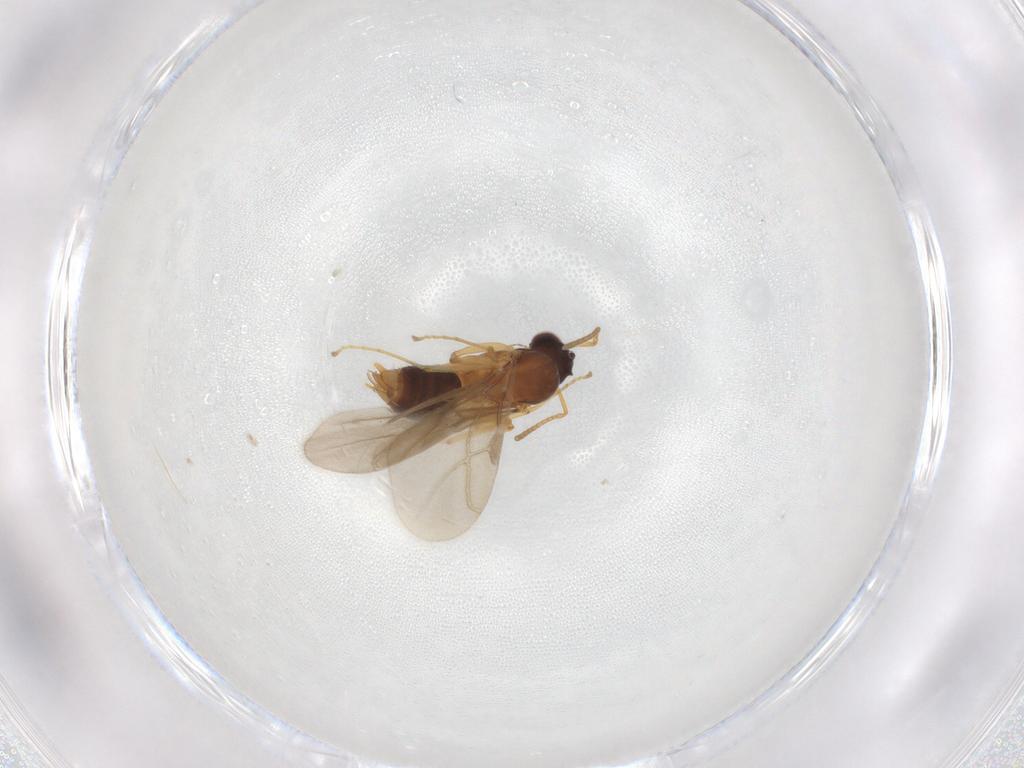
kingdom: Animalia
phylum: Arthropoda
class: Insecta
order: Hymenoptera
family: Formicidae
